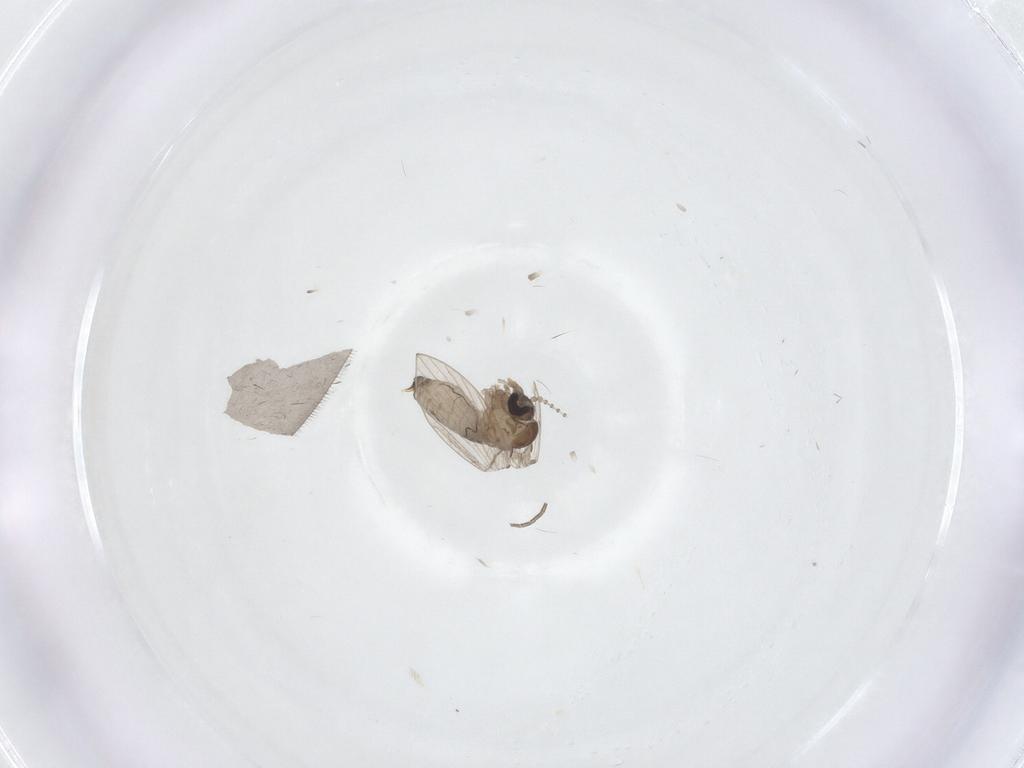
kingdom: Animalia
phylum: Arthropoda
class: Insecta
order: Diptera
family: Psychodidae
